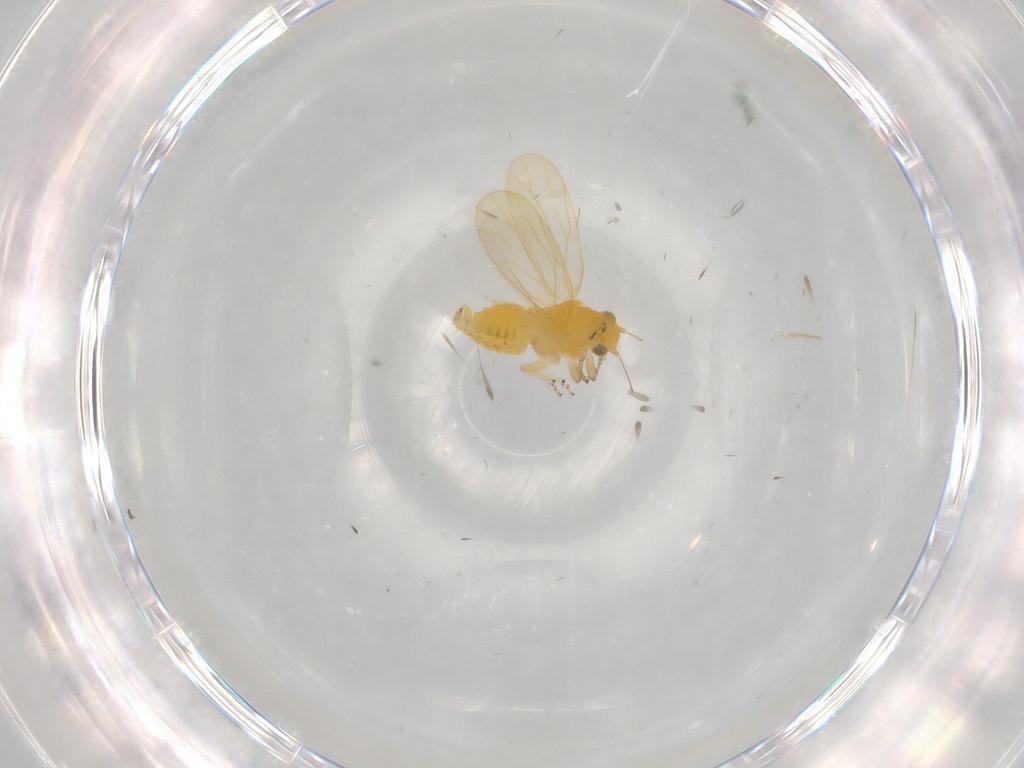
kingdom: Animalia
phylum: Arthropoda
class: Insecta
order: Hemiptera
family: Psyllidae
